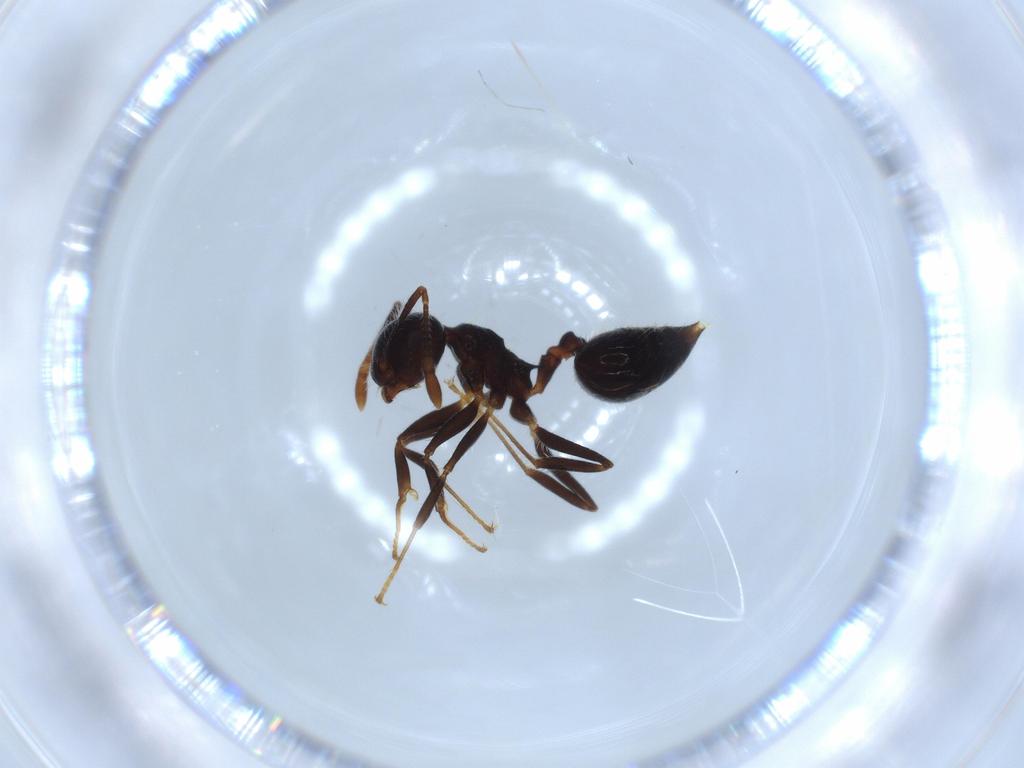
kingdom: Animalia
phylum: Arthropoda
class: Insecta
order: Hymenoptera
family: Formicidae
